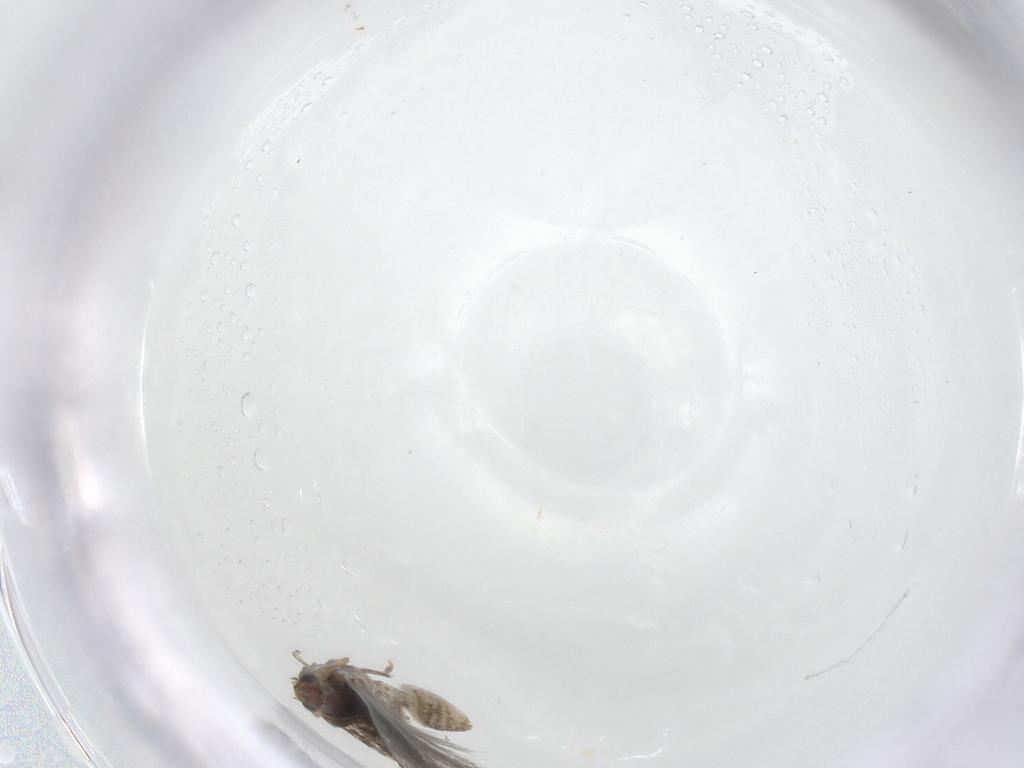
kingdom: Animalia
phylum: Arthropoda
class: Insecta
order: Lepidoptera
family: Nepticulidae
